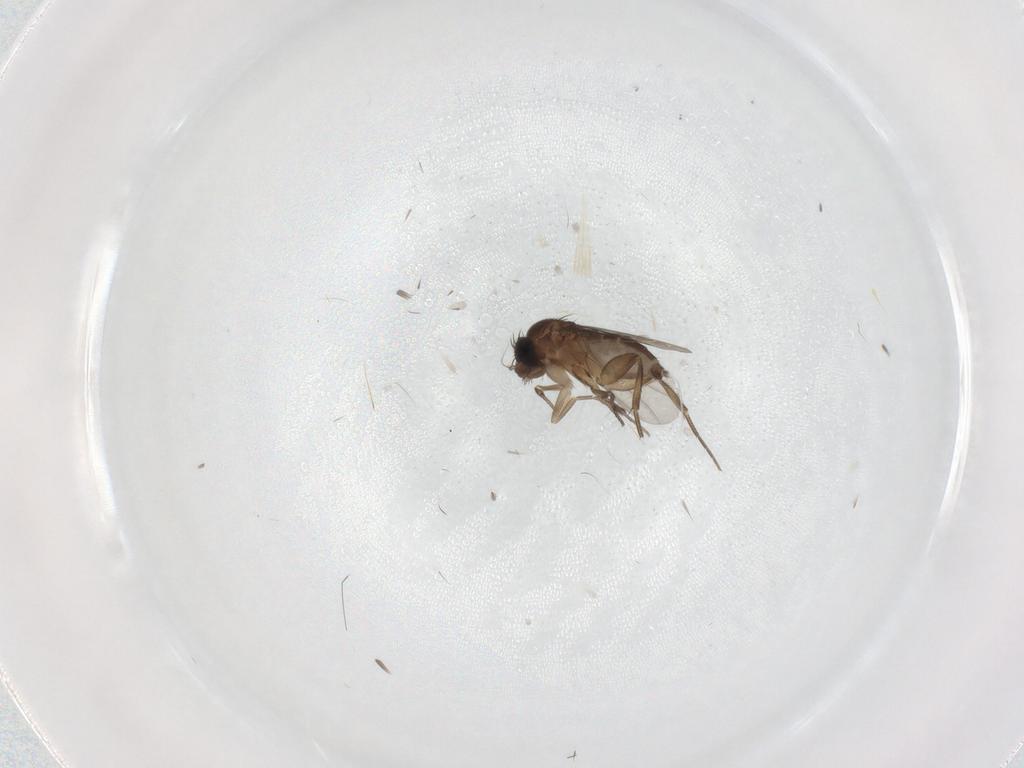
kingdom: Animalia
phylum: Arthropoda
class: Insecta
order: Diptera
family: Phoridae
